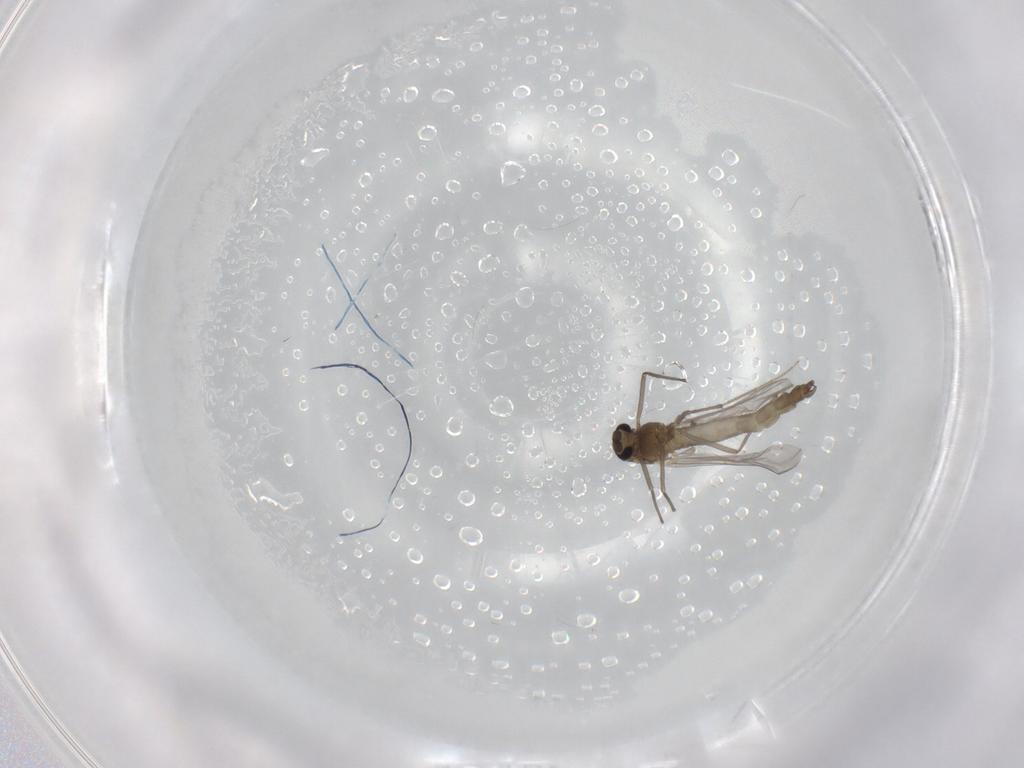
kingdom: Animalia
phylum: Arthropoda
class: Insecta
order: Diptera
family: Chironomidae
